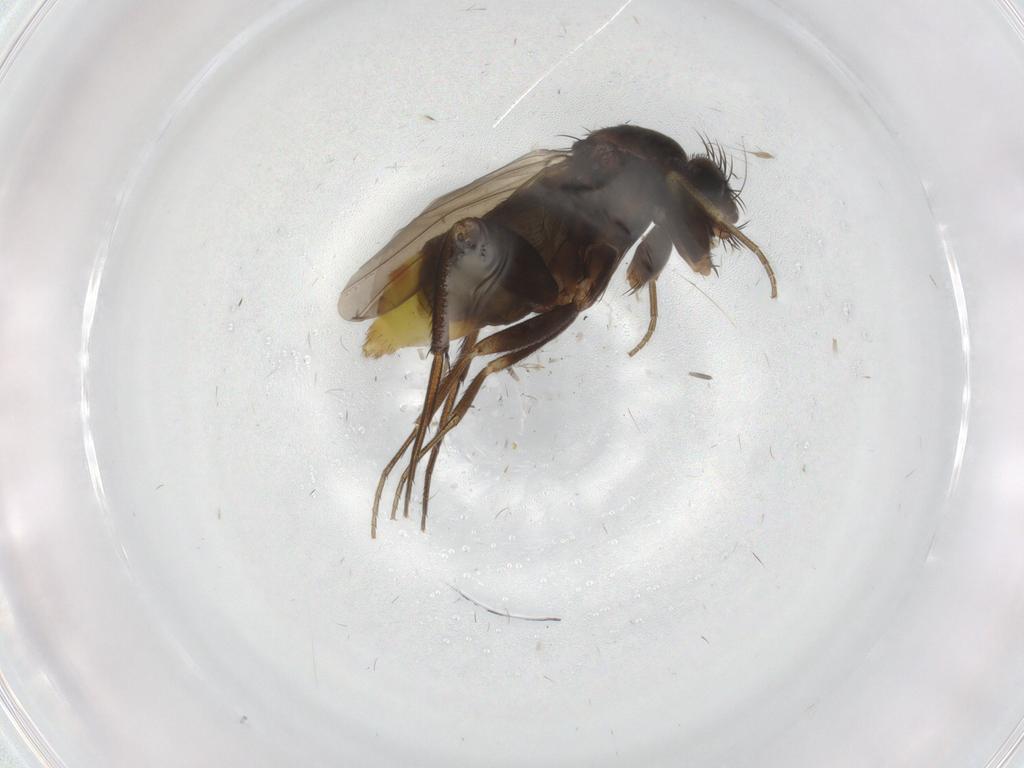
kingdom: Animalia
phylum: Arthropoda
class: Insecta
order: Diptera
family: Phoridae
